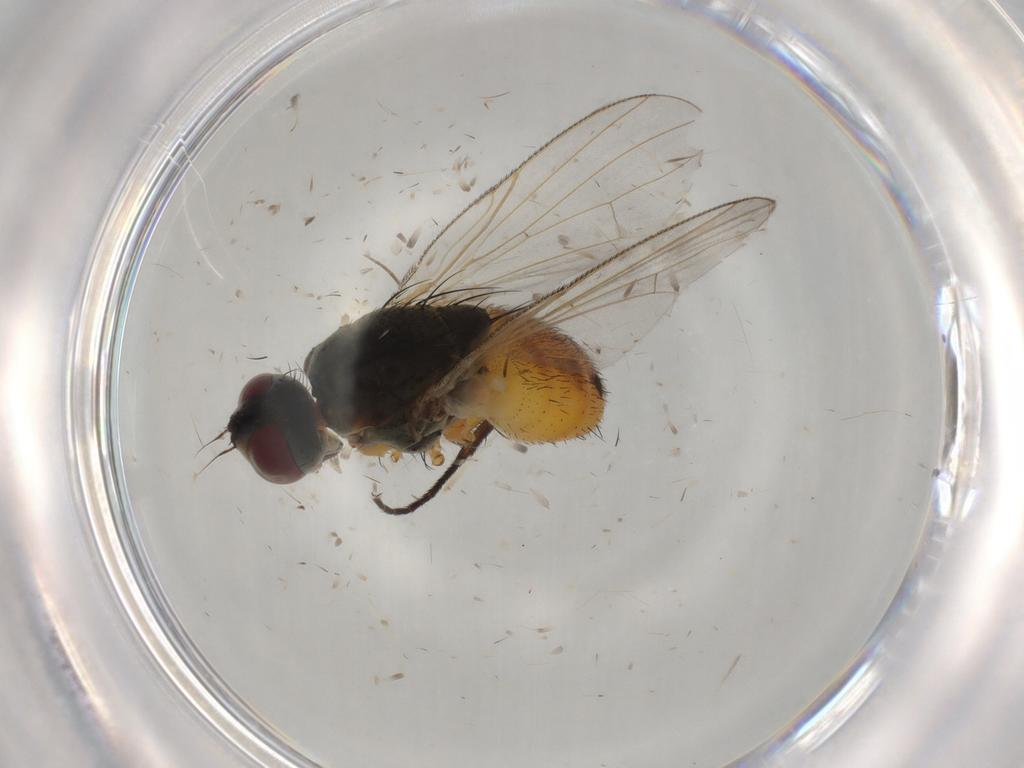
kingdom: Animalia
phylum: Arthropoda
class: Insecta
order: Diptera
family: Muscidae
